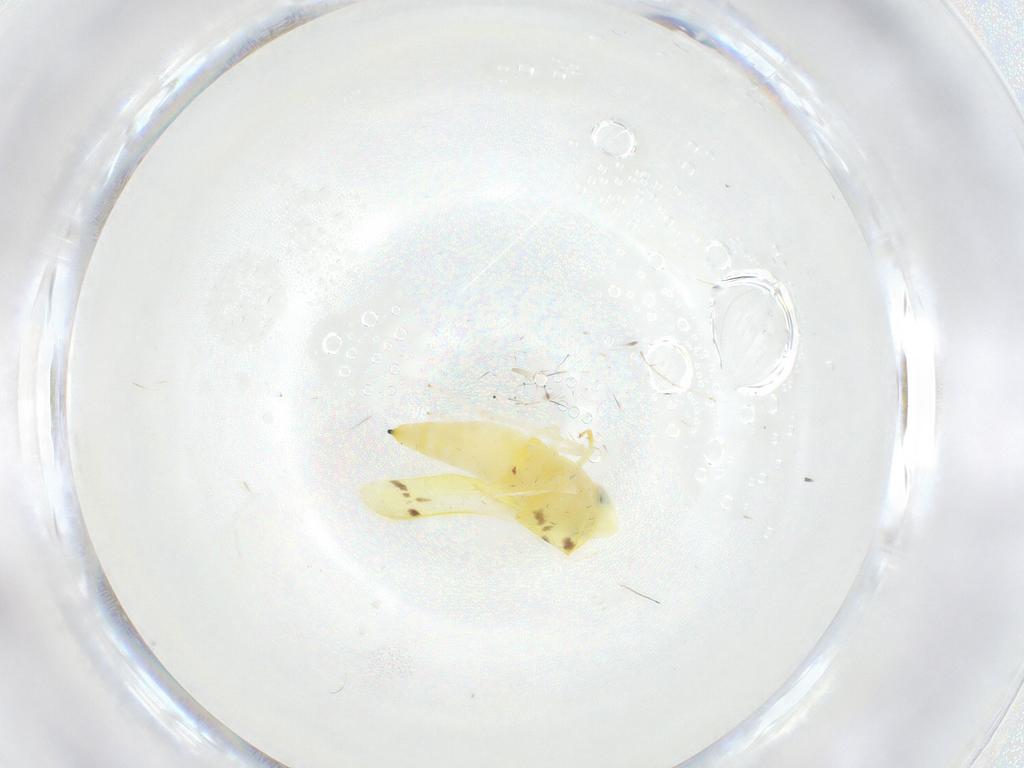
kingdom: Animalia
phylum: Arthropoda
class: Insecta
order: Hemiptera
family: Cicadellidae
